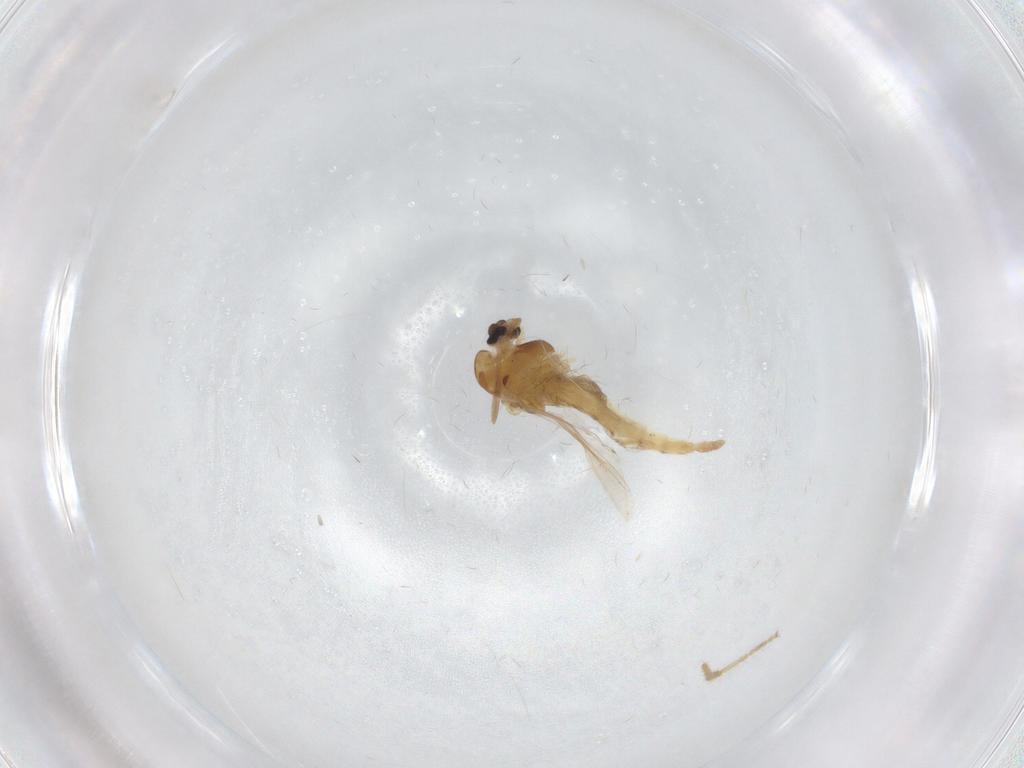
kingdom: Animalia
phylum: Arthropoda
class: Insecta
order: Diptera
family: Chironomidae
